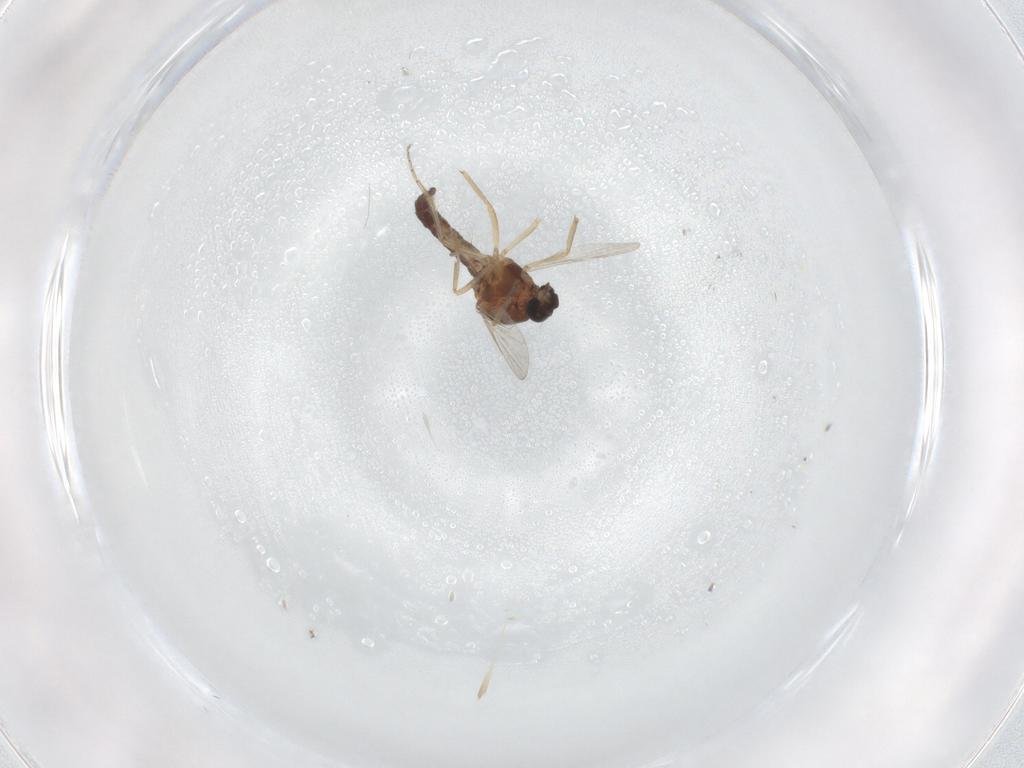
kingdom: Animalia
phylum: Arthropoda
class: Insecta
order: Diptera
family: Ceratopogonidae
